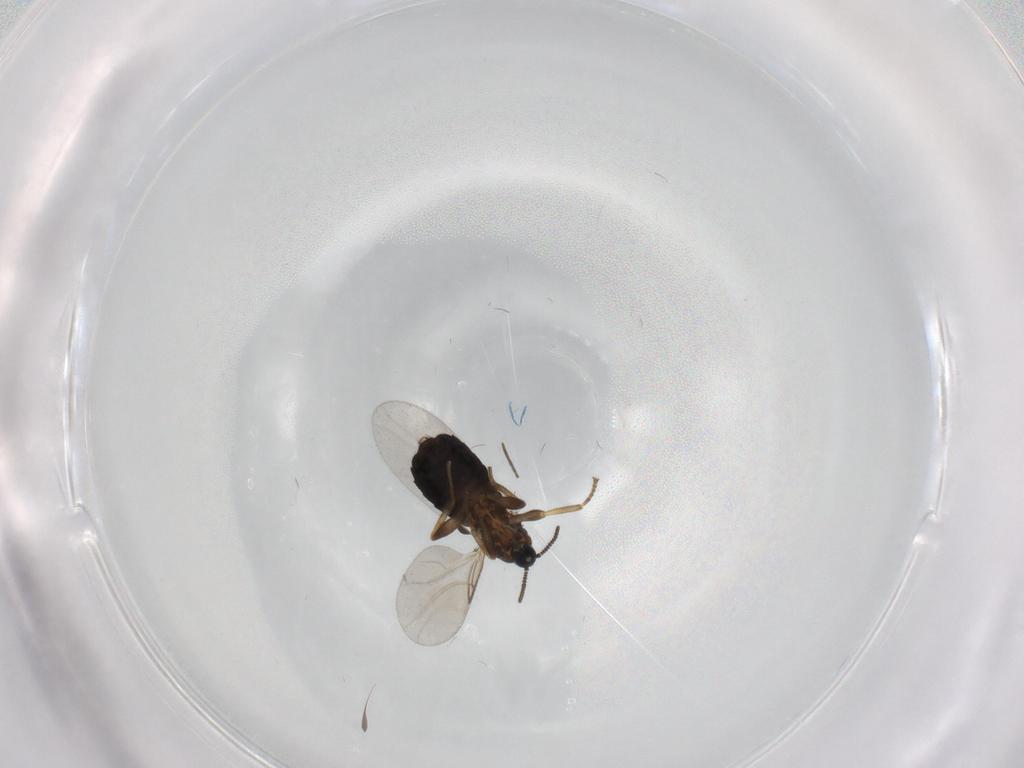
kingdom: Animalia
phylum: Arthropoda
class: Insecta
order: Diptera
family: Scatopsidae
